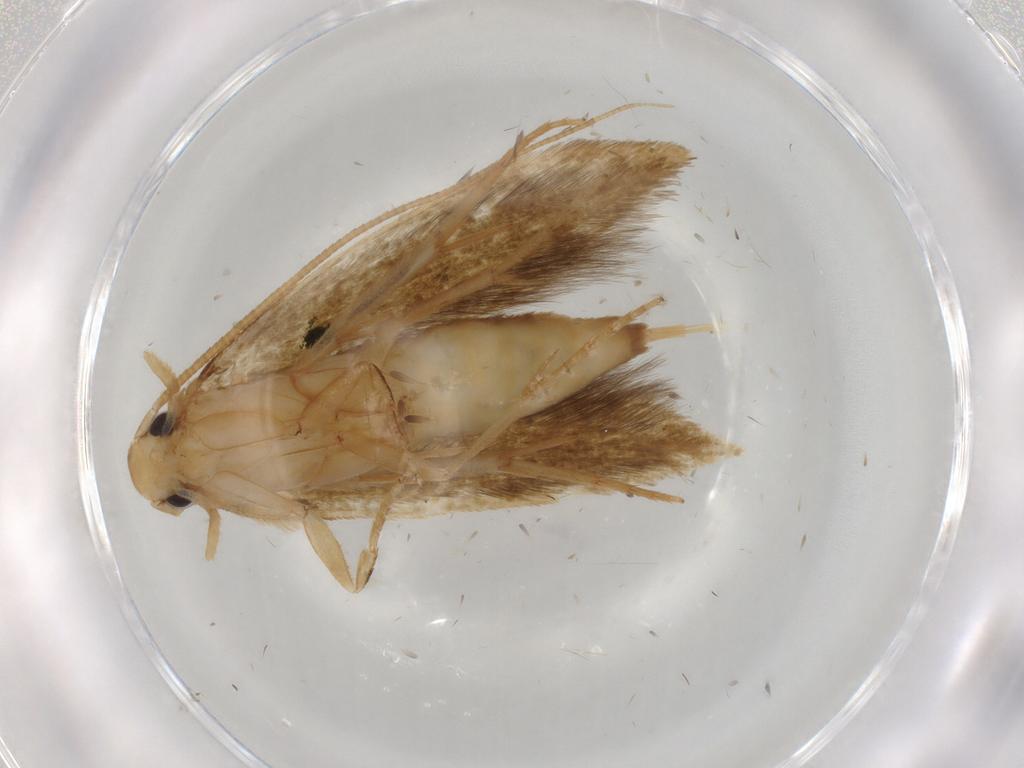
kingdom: Animalia
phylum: Arthropoda
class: Insecta
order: Lepidoptera
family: Tineidae
